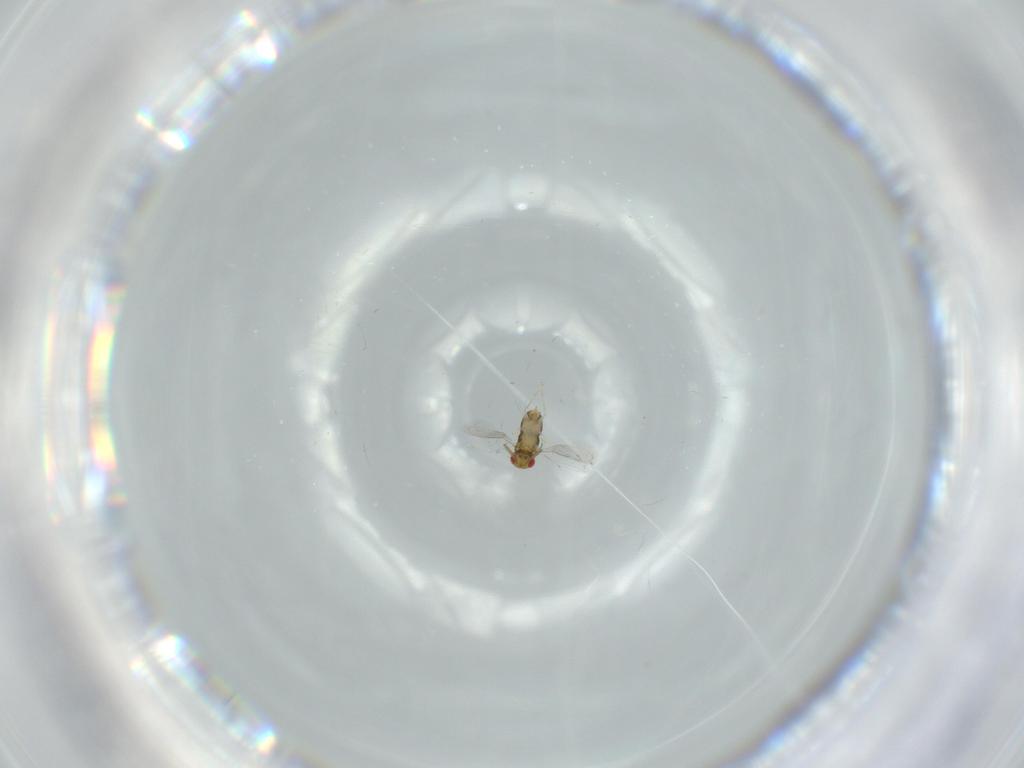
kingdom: Animalia
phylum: Arthropoda
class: Insecta
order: Hymenoptera
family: Aphelinidae
